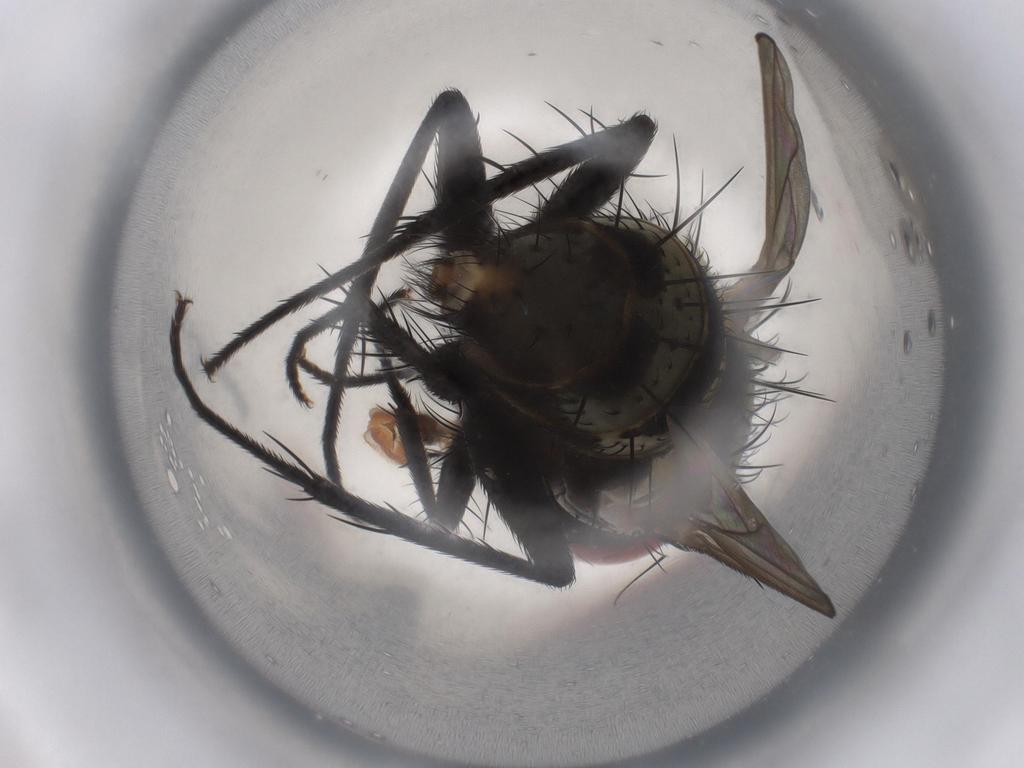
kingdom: Animalia
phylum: Arthropoda
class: Insecta
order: Diptera
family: Tachinidae
